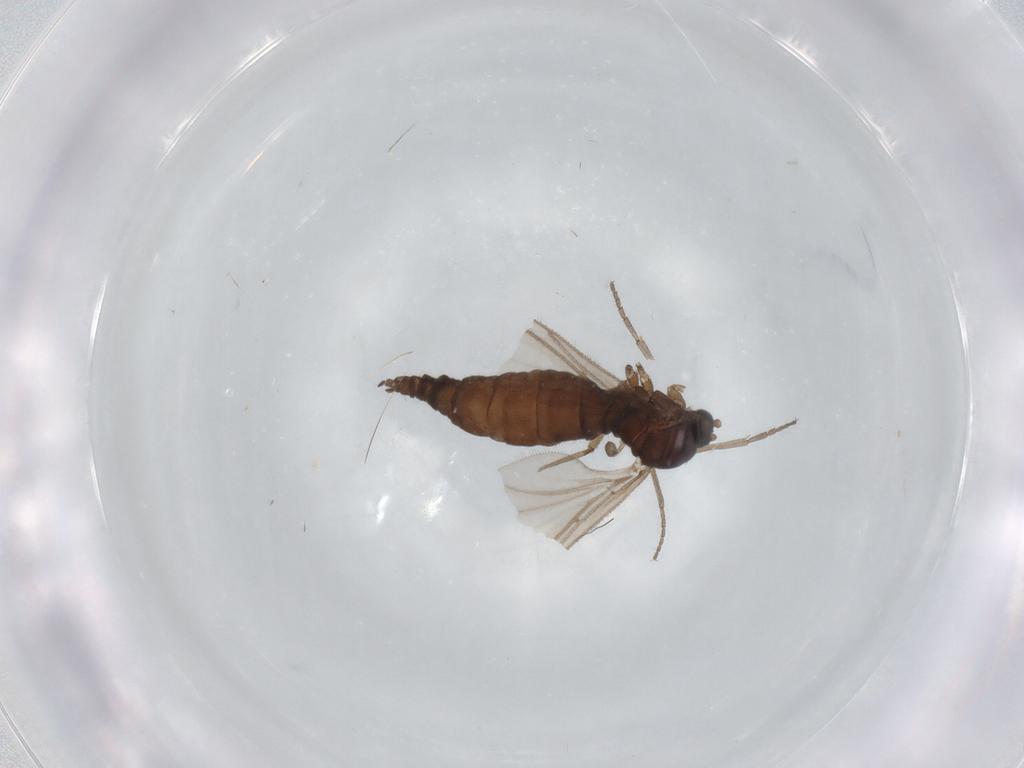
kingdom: Animalia
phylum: Arthropoda
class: Insecta
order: Diptera
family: Sciaridae
